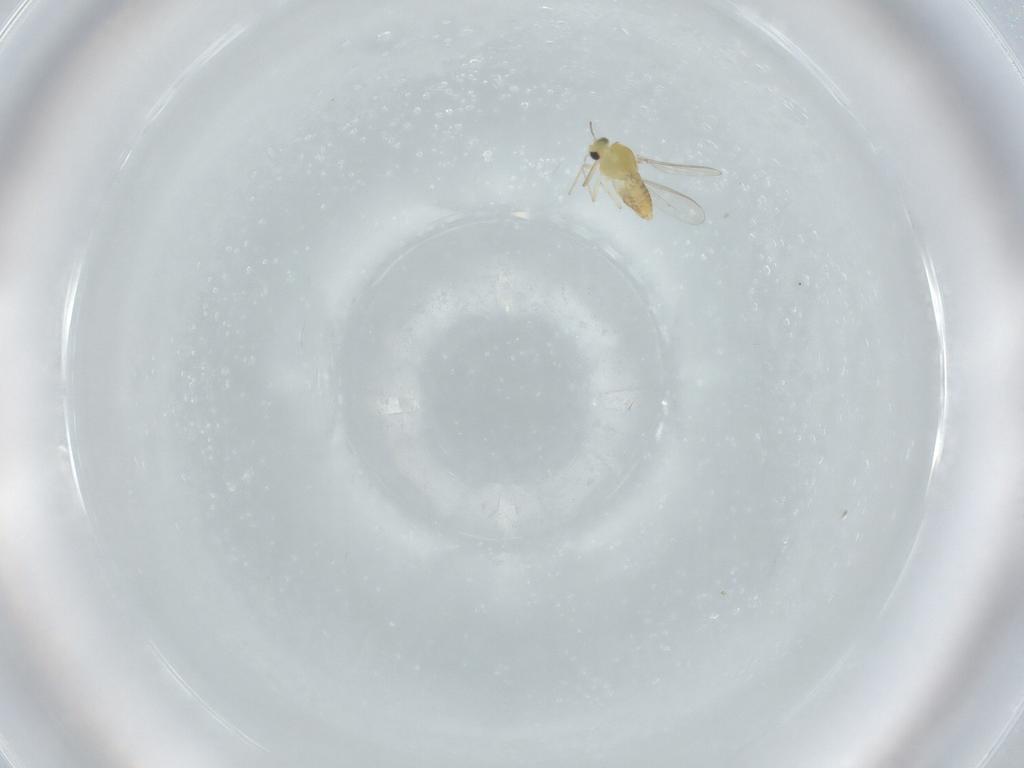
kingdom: Animalia
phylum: Arthropoda
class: Insecta
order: Diptera
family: Chironomidae
